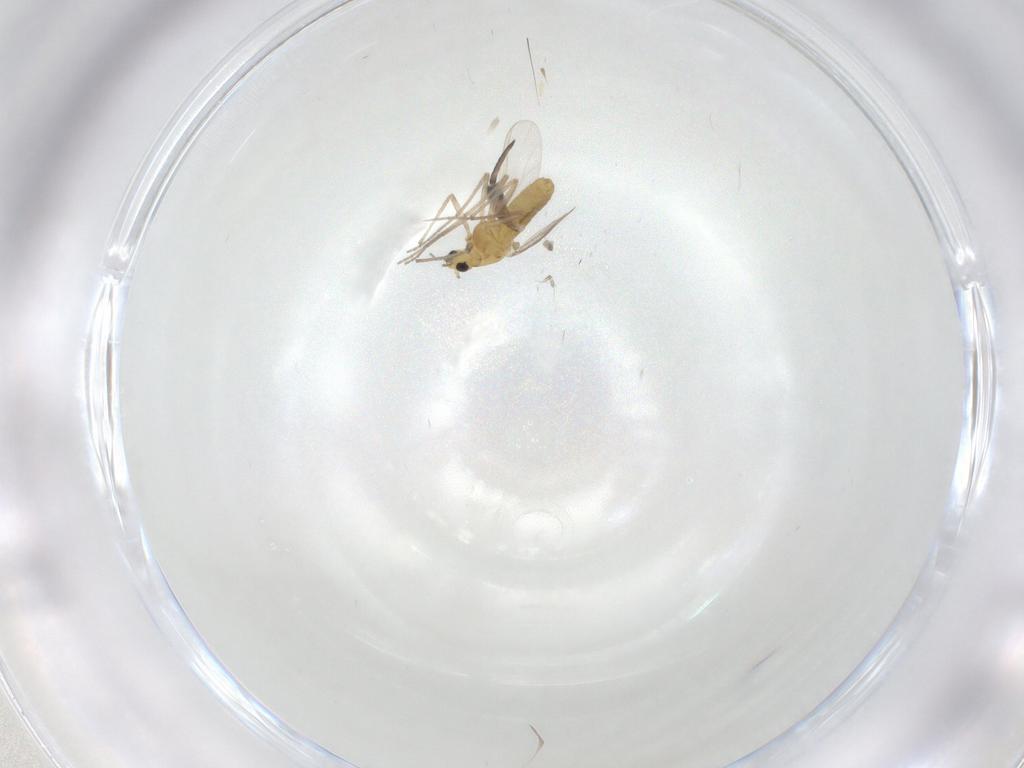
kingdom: Animalia
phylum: Arthropoda
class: Insecta
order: Diptera
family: Chironomidae
